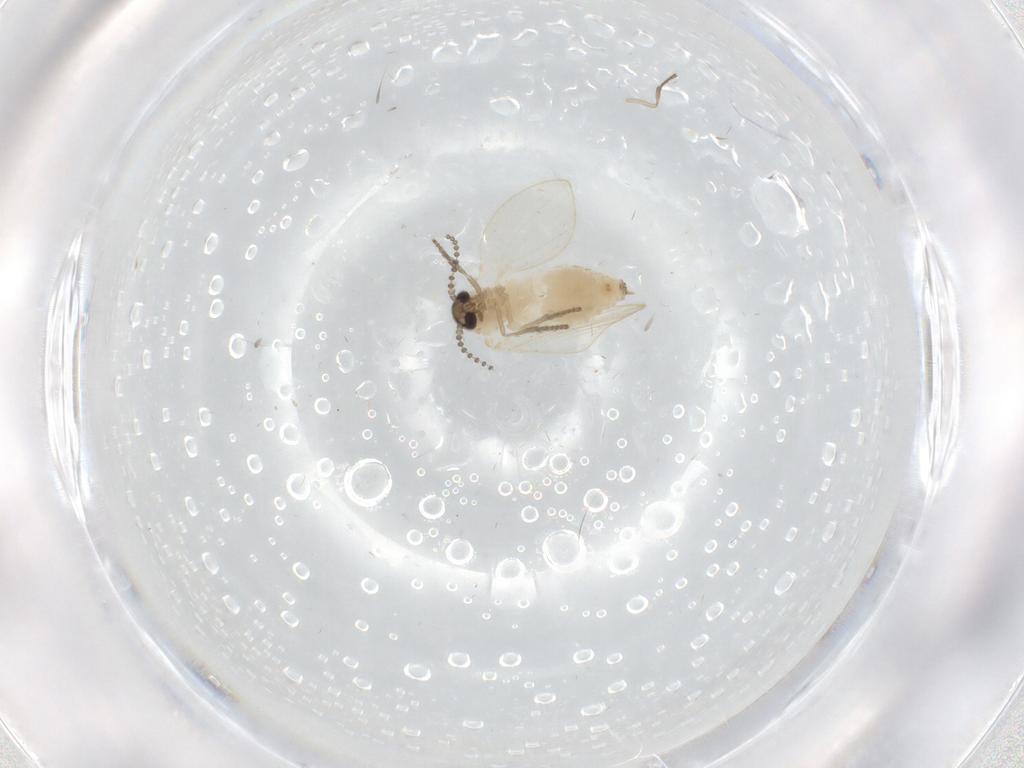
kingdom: Animalia
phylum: Arthropoda
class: Insecta
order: Diptera
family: Psychodidae
